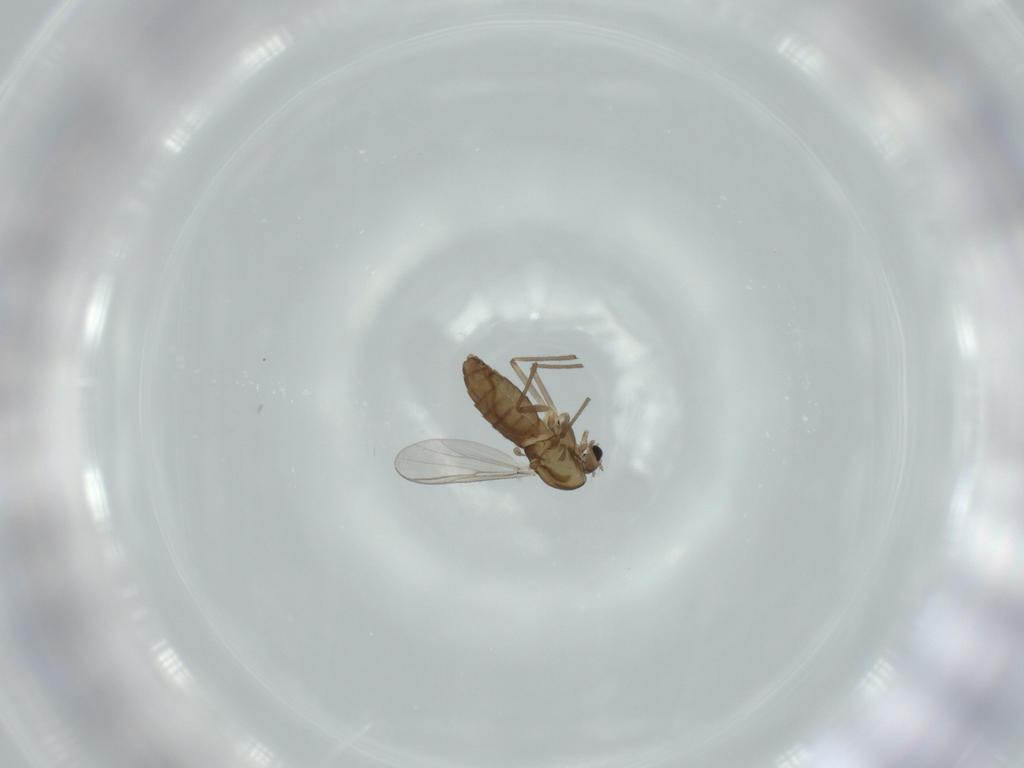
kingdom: Animalia
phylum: Arthropoda
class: Insecta
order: Diptera
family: Chironomidae
